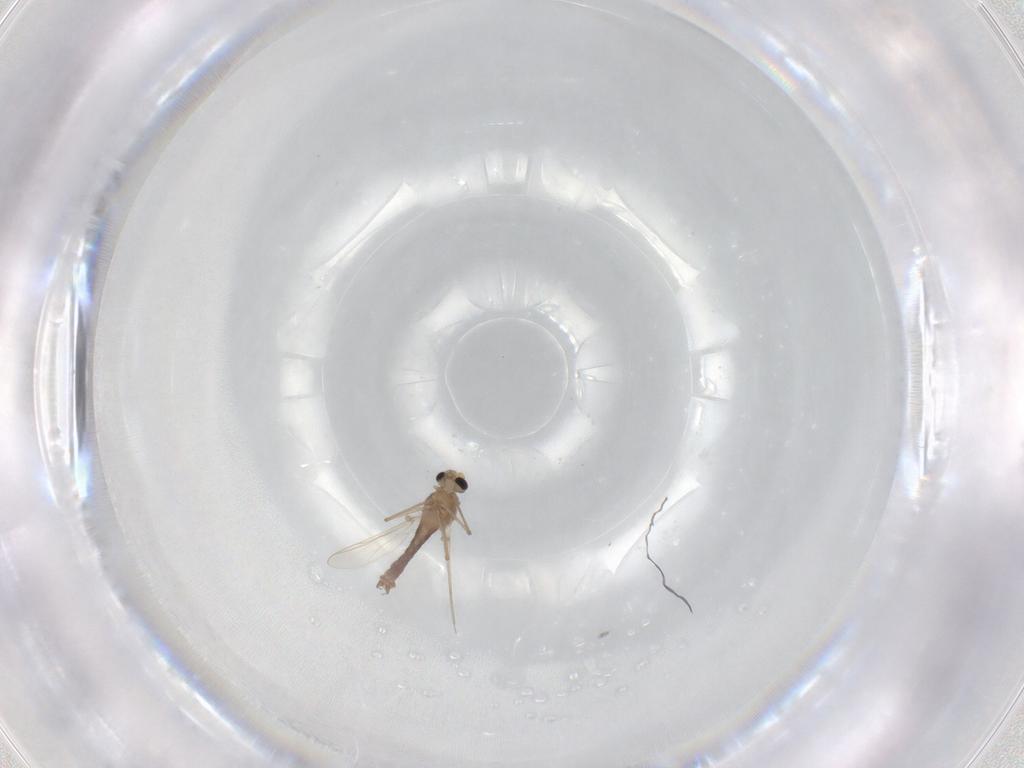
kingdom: Animalia
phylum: Arthropoda
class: Insecta
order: Diptera
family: Chironomidae
